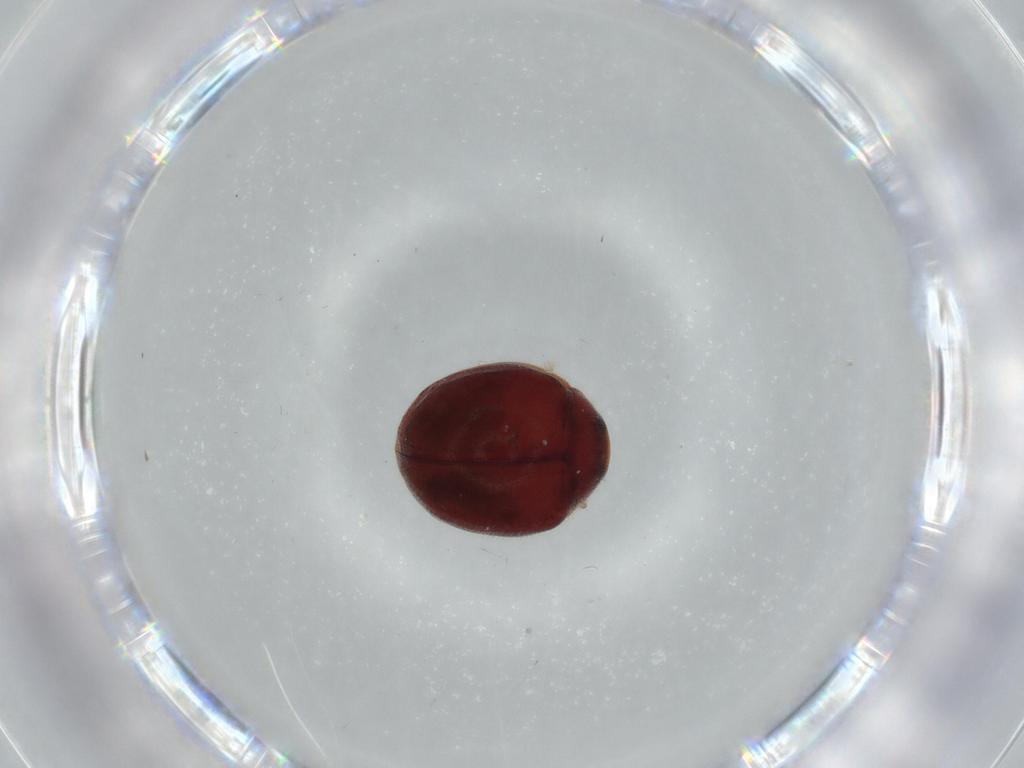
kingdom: Animalia
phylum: Arthropoda
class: Insecta
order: Coleoptera
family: Coccinellidae
